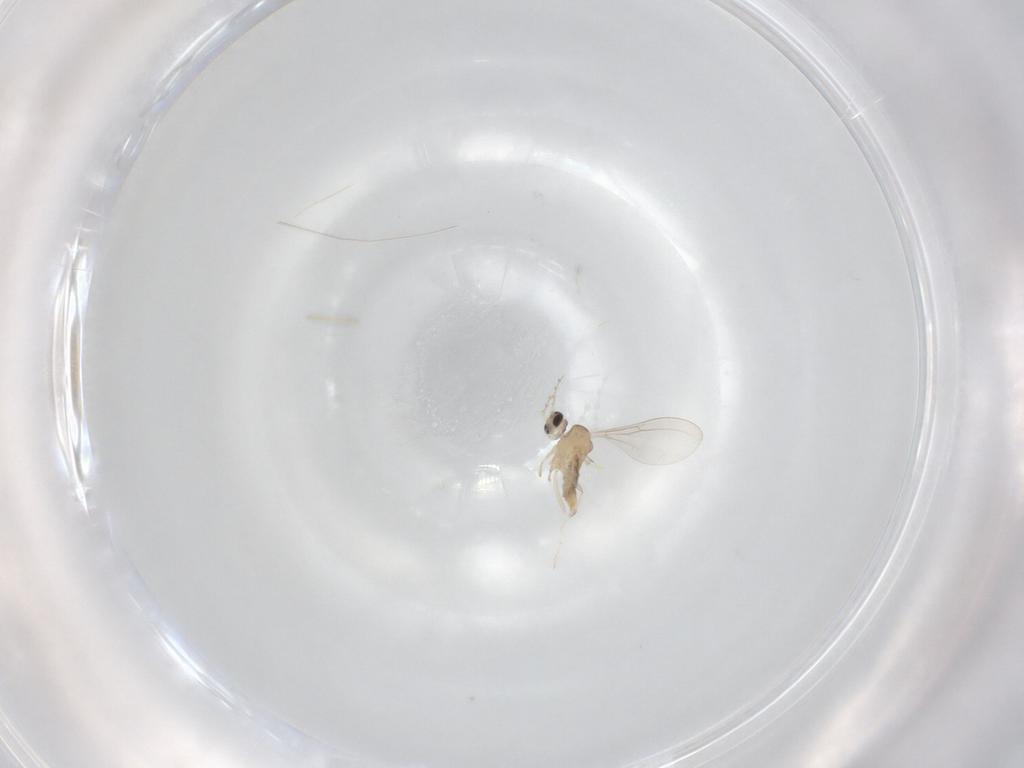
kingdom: Animalia
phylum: Arthropoda
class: Insecta
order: Diptera
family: Cecidomyiidae
